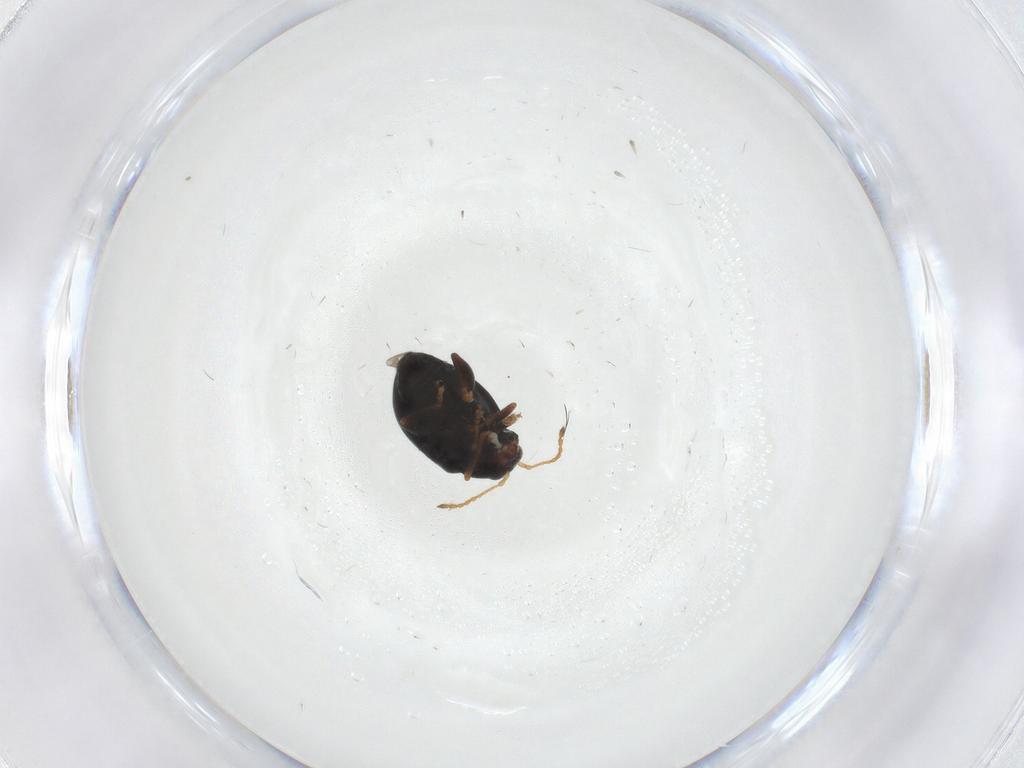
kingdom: Animalia
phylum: Arthropoda
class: Insecta
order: Coleoptera
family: Chrysomelidae
